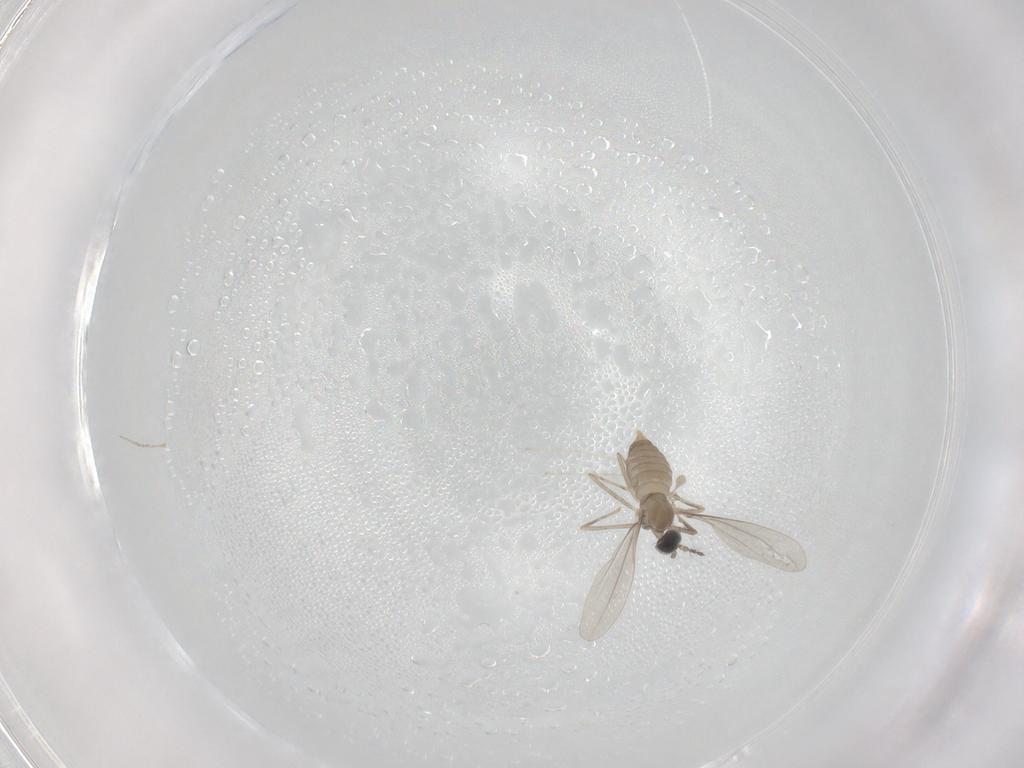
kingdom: Animalia
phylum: Arthropoda
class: Insecta
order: Diptera
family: Cecidomyiidae
